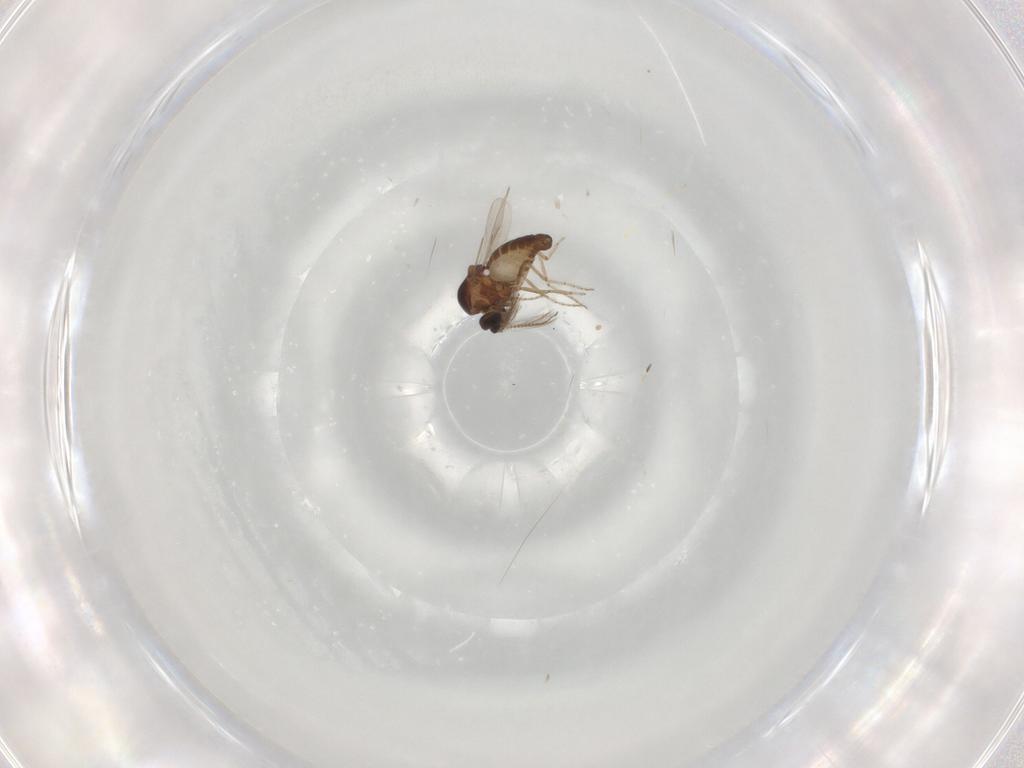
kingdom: Animalia
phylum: Arthropoda
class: Insecta
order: Diptera
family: Ceratopogonidae
